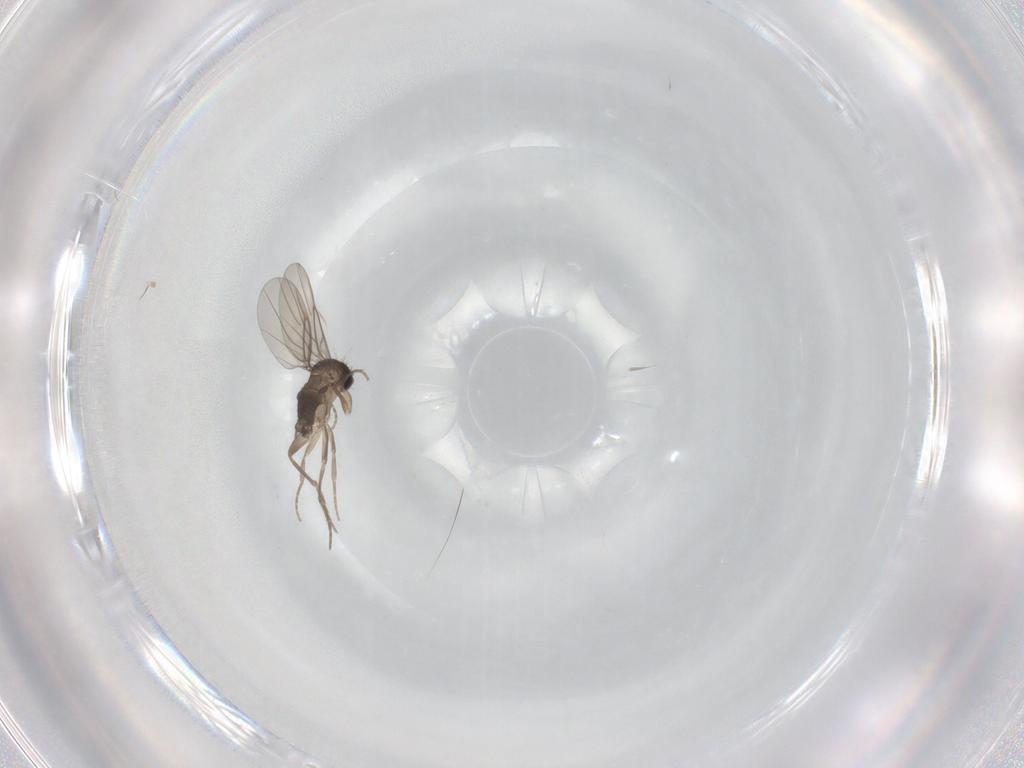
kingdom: Animalia
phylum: Arthropoda
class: Insecta
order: Diptera
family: Phoridae
